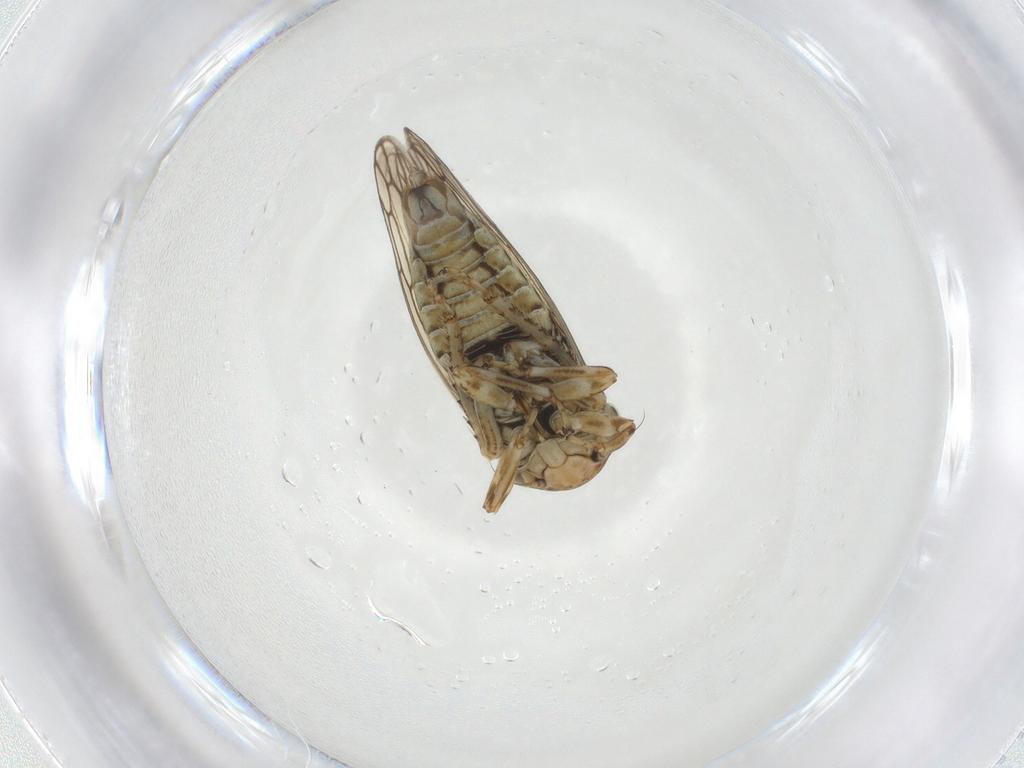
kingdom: Animalia
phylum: Arthropoda
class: Insecta
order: Hemiptera
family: Cicadellidae
